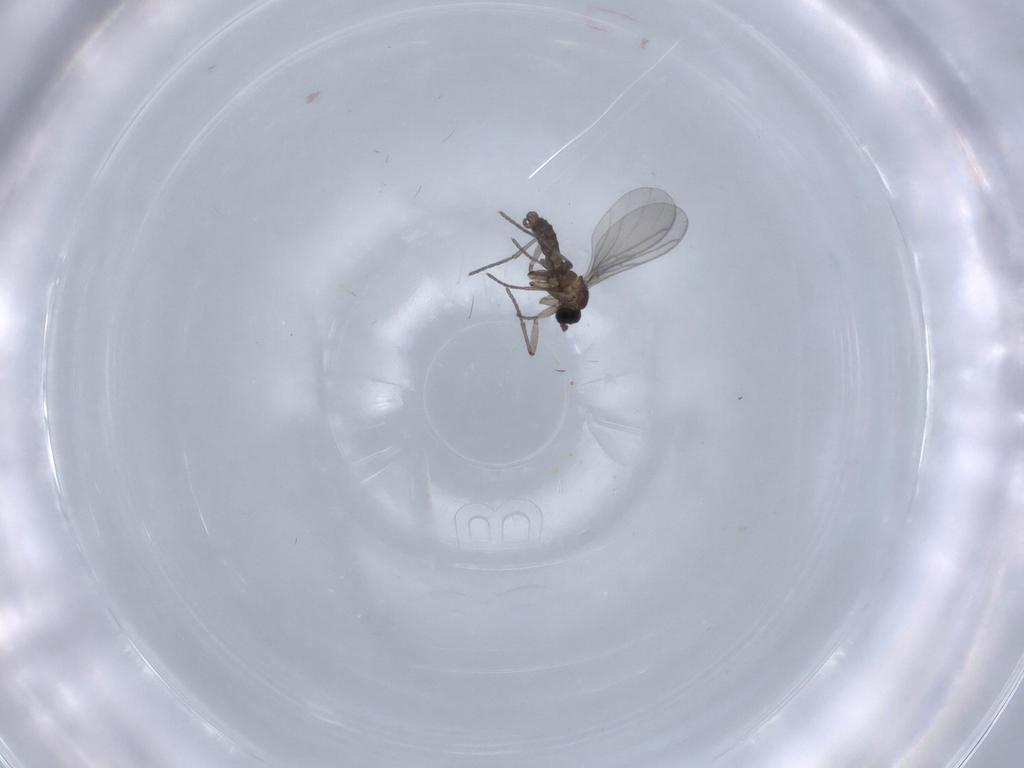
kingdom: Animalia
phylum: Arthropoda
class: Insecta
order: Diptera
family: Phoridae
